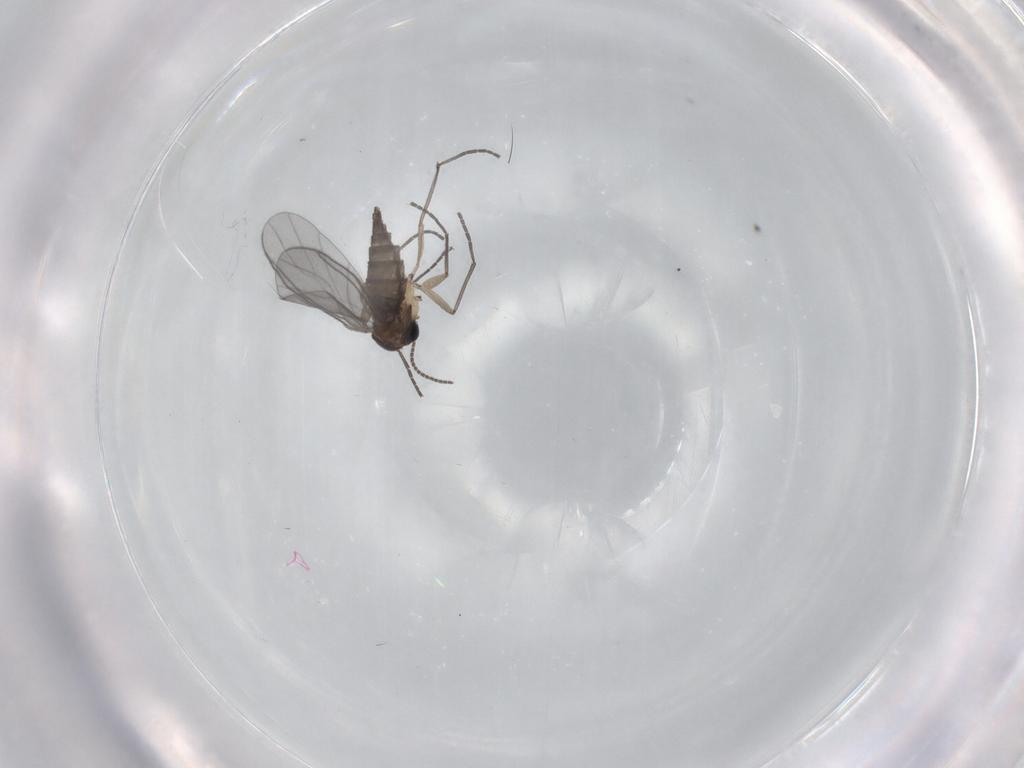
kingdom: Animalia
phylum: Arthropoda
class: Insecta
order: Diptera
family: Sciaridae
